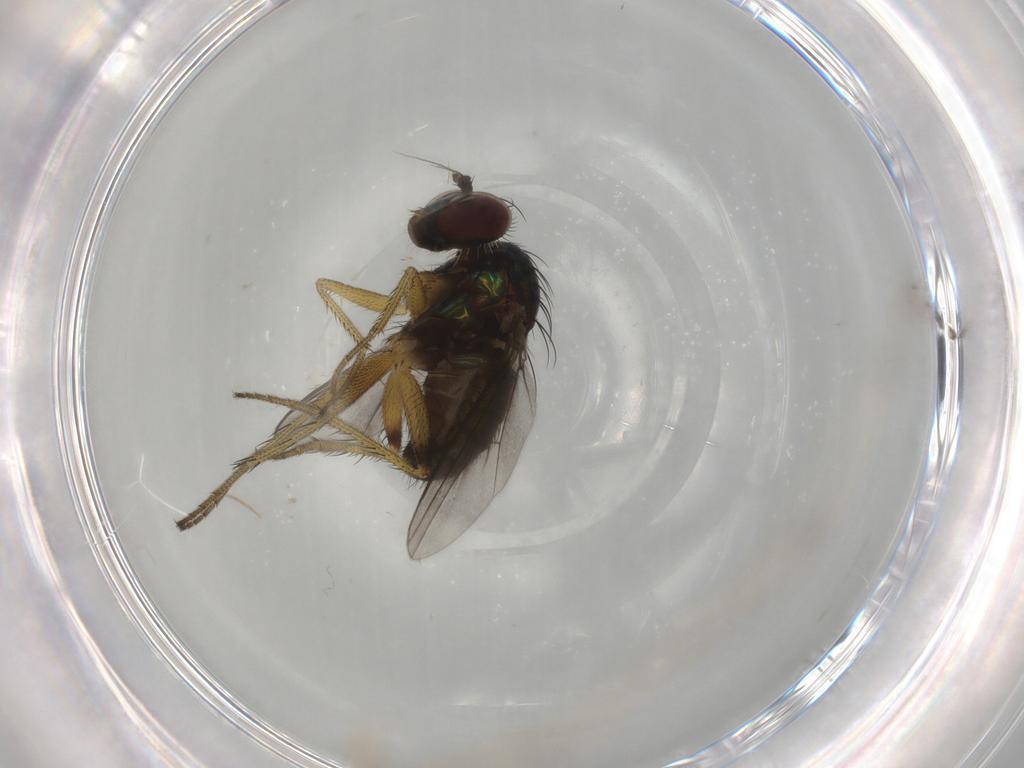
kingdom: Animalia
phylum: Arthropoda
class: Insecta
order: Diptera
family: Dolichopodidae
